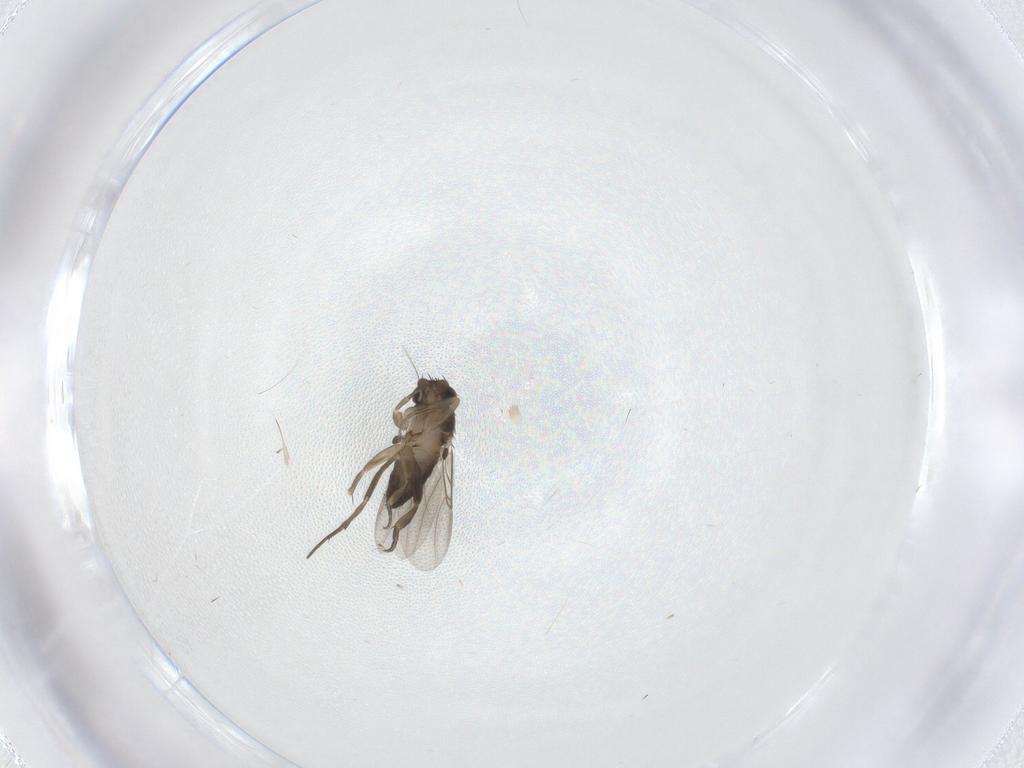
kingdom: Animalia
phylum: Arthropoda
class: Insecta
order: Diptera
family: Phoridae
